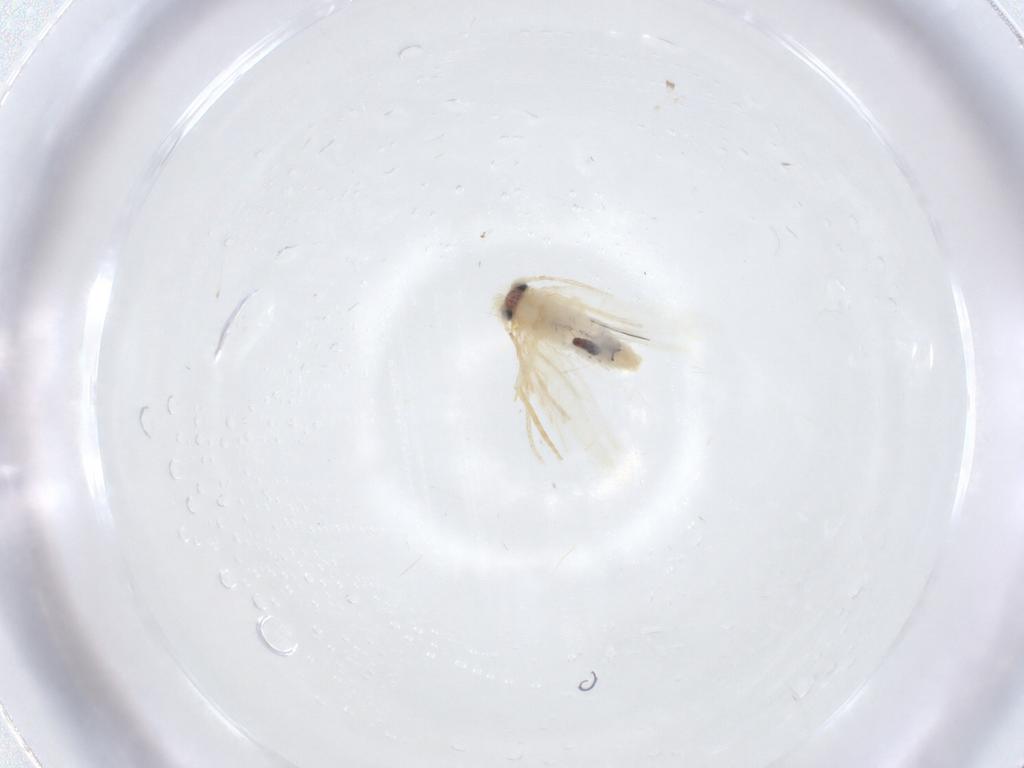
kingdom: Animalia
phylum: Arthropoda
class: Insecta
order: Lepidoptera
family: Nepticulidae
